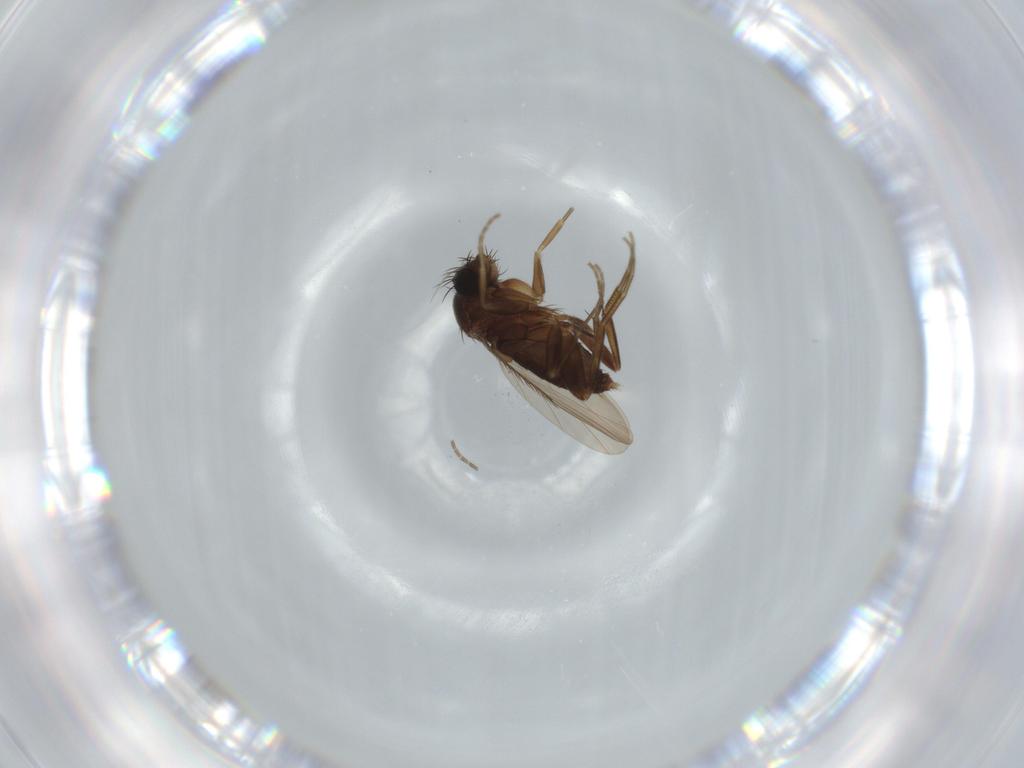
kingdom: Animalia
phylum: Arthropoda
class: Insecta
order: Diptera
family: Phoridae
